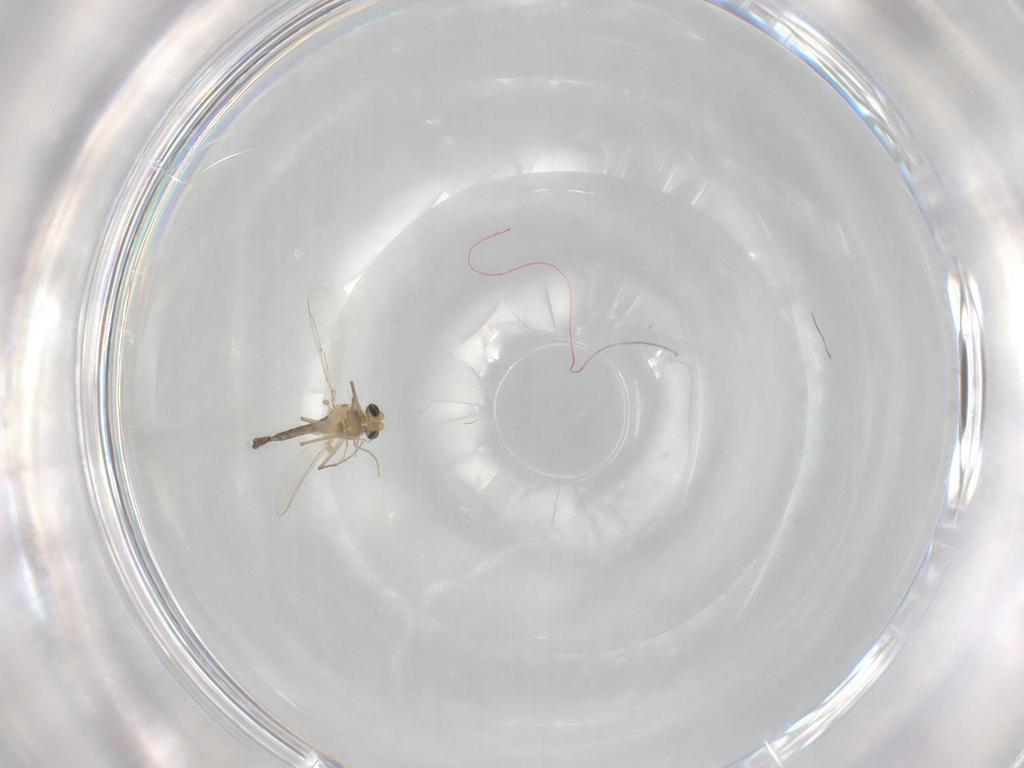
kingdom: Animalia
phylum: Arthropoda
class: Insecta
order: Diptera
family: Chironomidae
